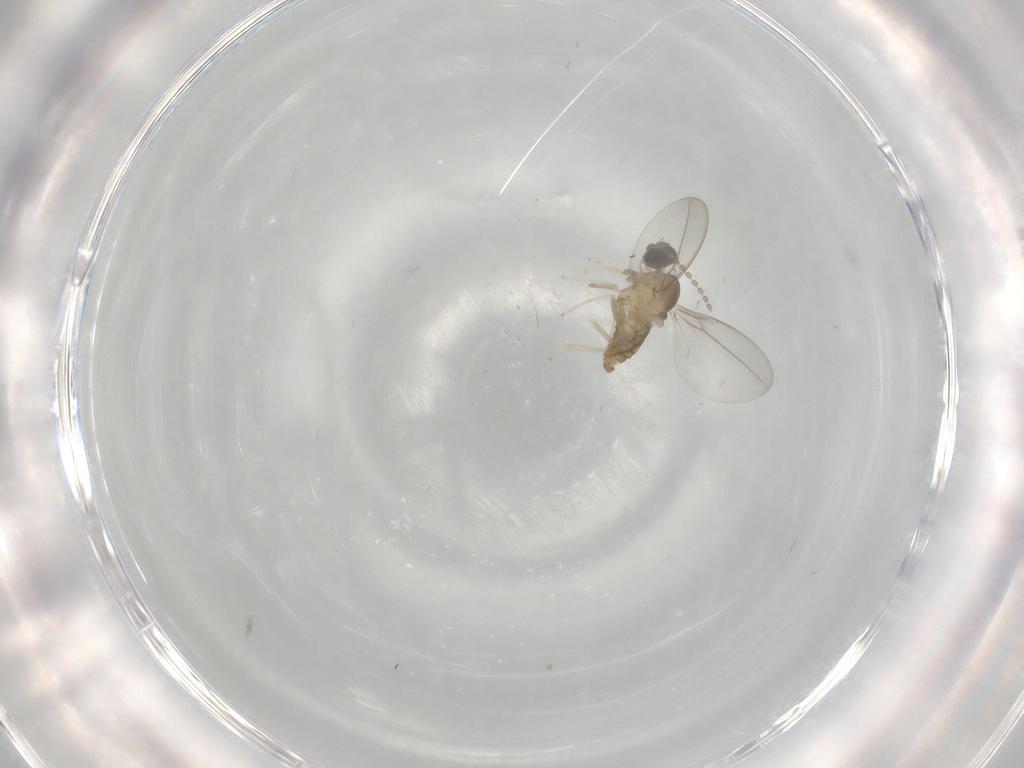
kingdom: Animalia
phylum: Arthropoda
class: Insecta
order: Diptera
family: Cecidomyiidae
